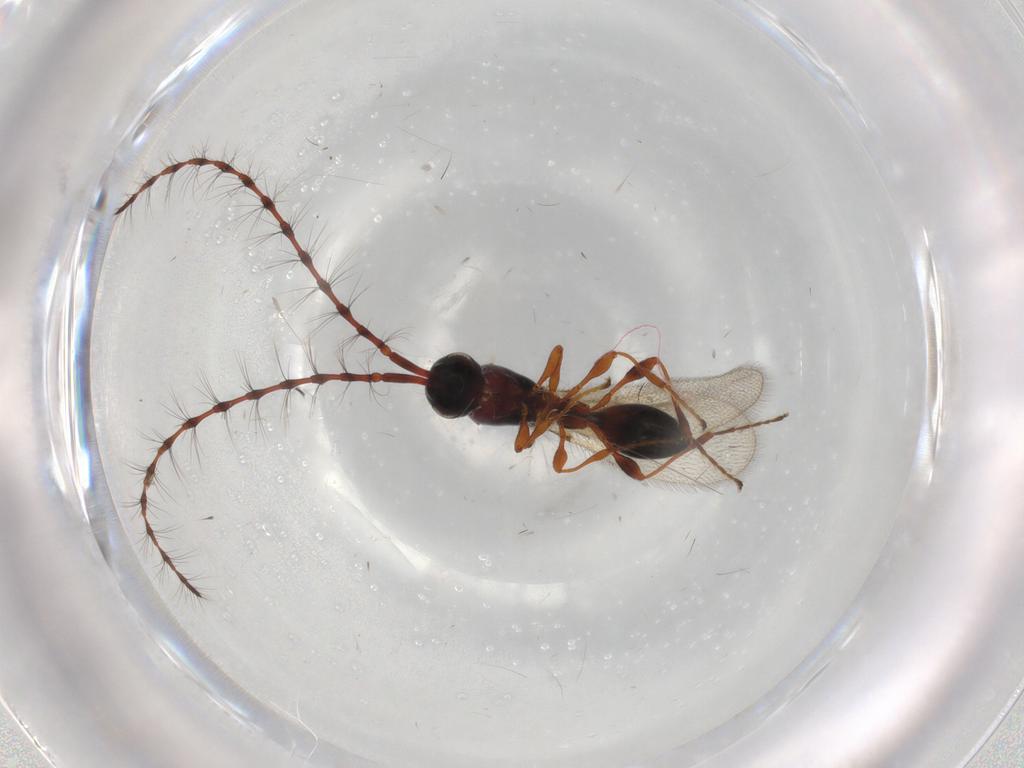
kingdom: Animalia
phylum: Arthropoda
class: Insecta
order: Hymenoptera
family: Diapriidae
